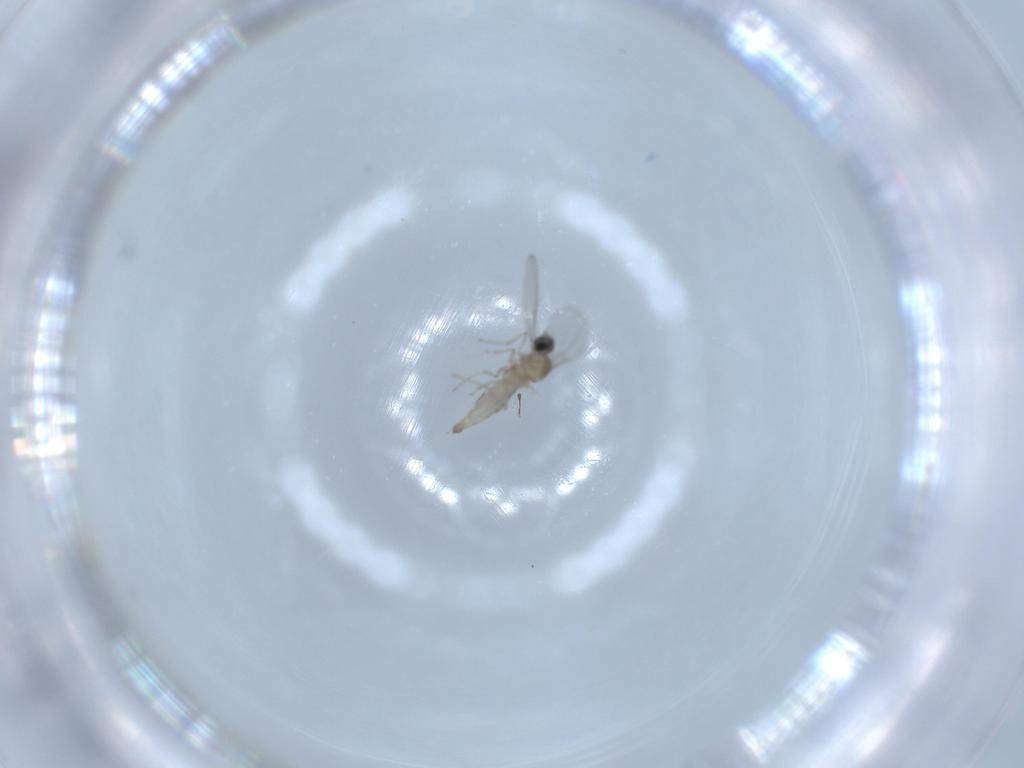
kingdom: Animalia
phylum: Arthropoda
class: Insecta
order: Diptera
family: Cecidomyiidae
